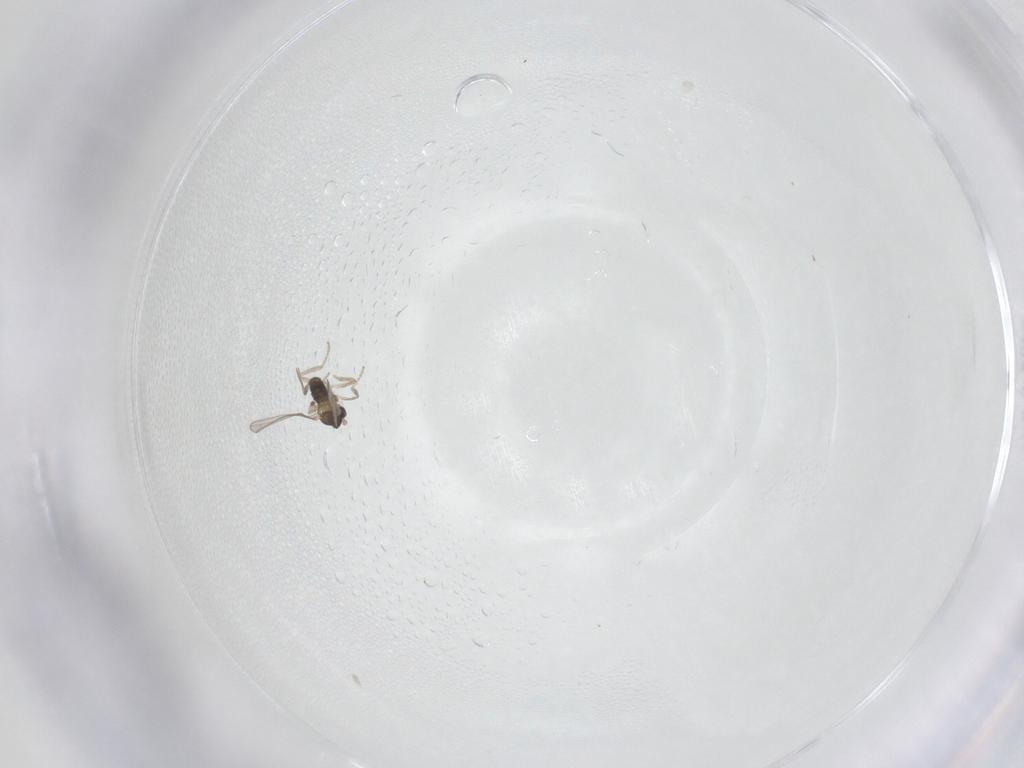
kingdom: Animalia
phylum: Arthropoda
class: Insecta
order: Diptera
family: Cecidomyiidae
